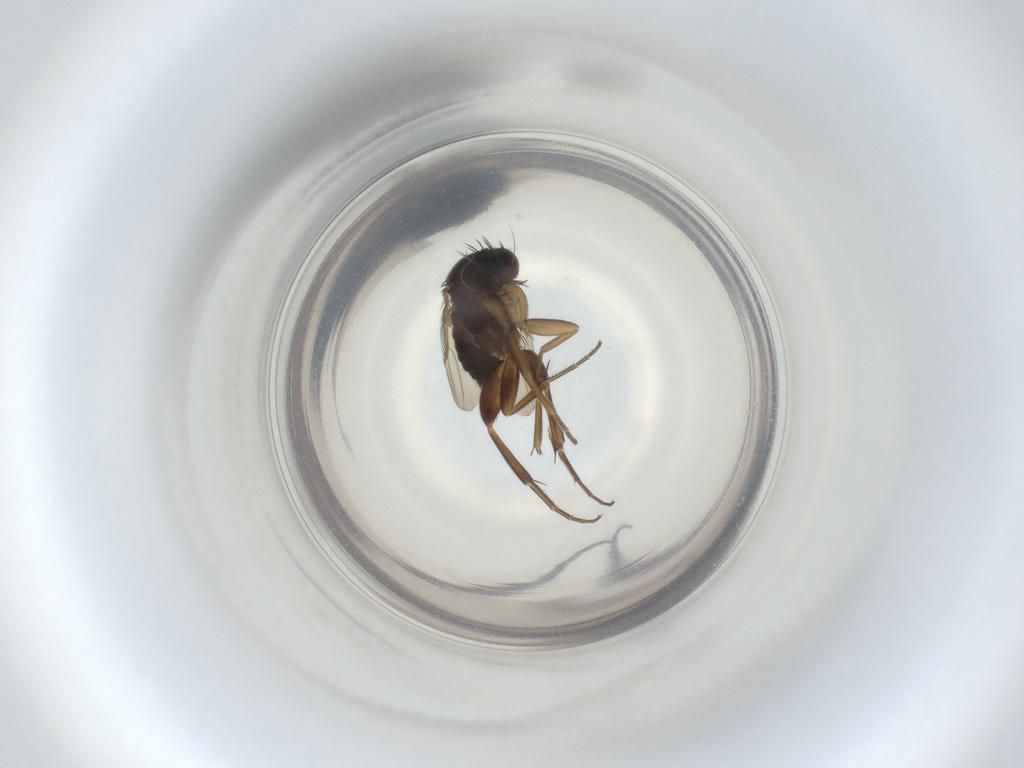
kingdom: Animalia
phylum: Arthropoda
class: Insecta
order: Diptera
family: Phoridae
